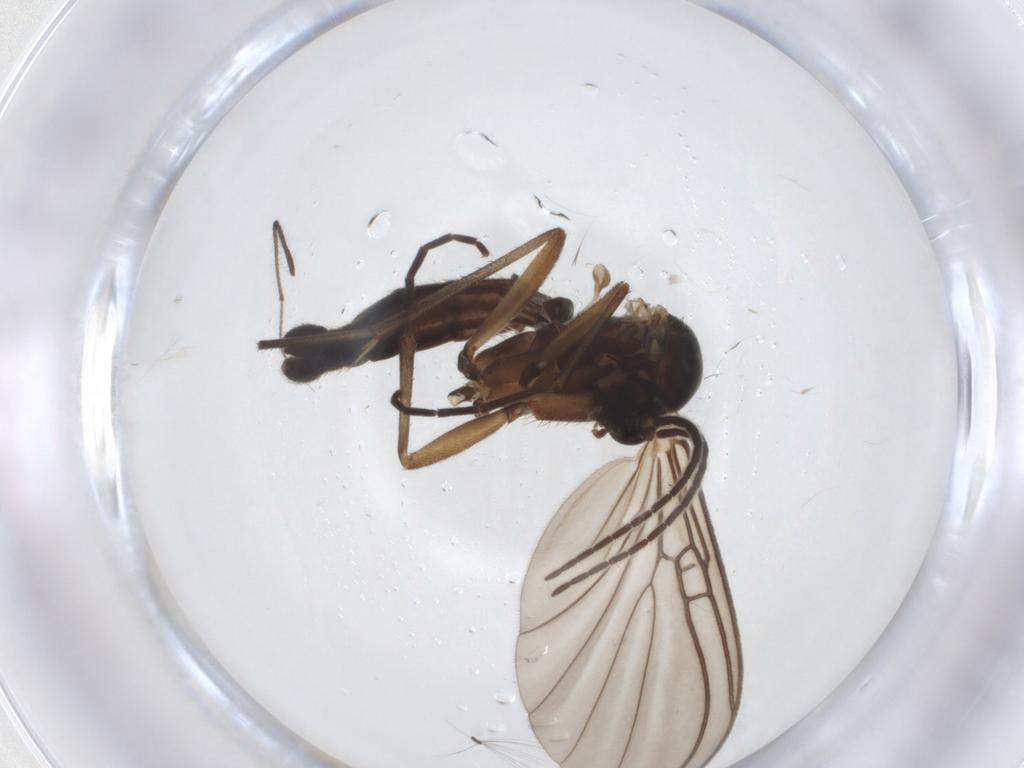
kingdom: Animalia
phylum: Arthropoda
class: Insecta
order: Diptera
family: Mycetophilidae
